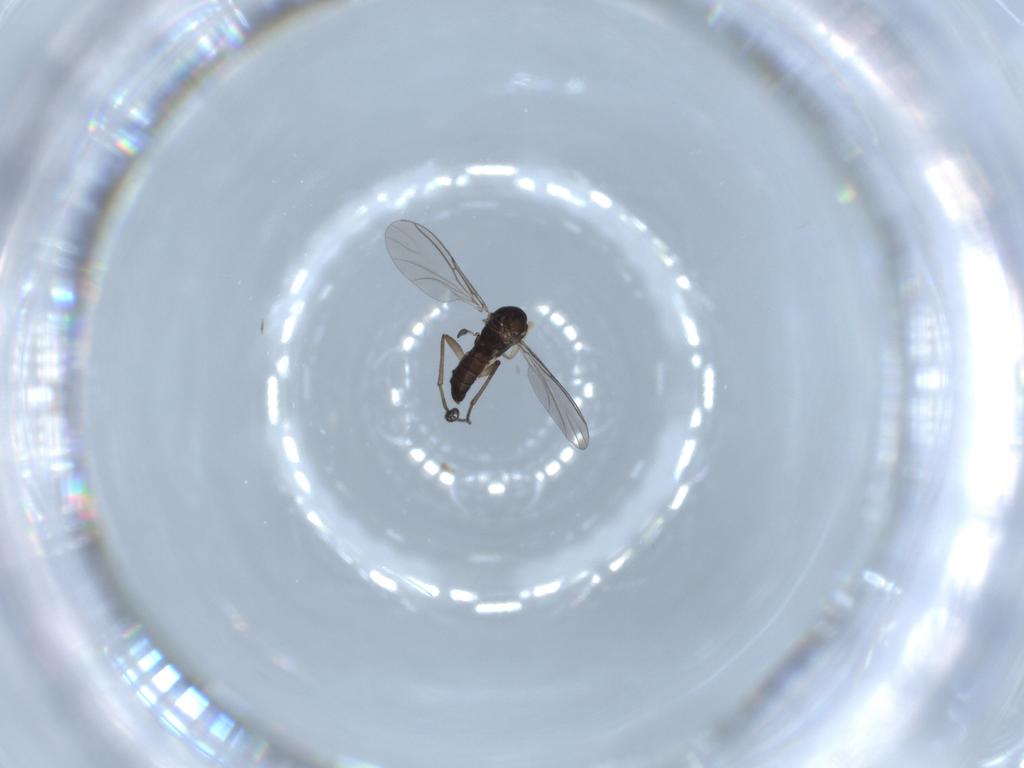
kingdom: Animalia
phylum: Arthropoda
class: Insecta
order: Diptera
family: Sciaridae
